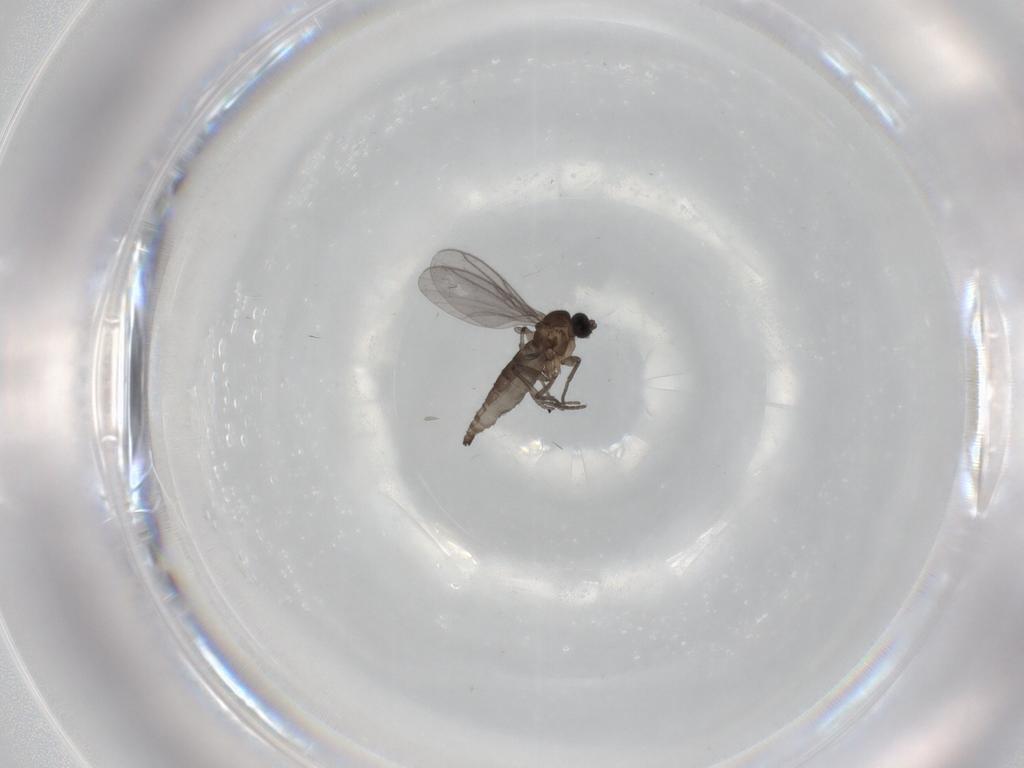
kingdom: Animalia
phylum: Arthropoda
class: Insecta
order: Diptera
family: Sciaridae
